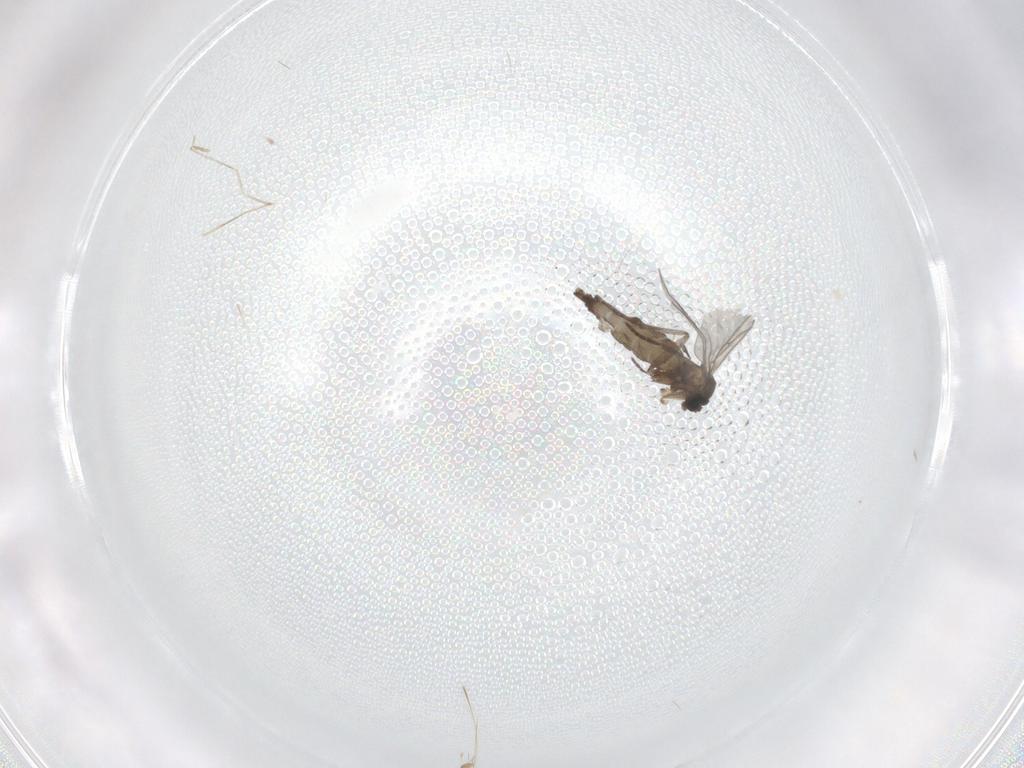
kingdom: Animalia
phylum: Arthropoda
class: Insecta
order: Diptera
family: Cecidomyiidae
